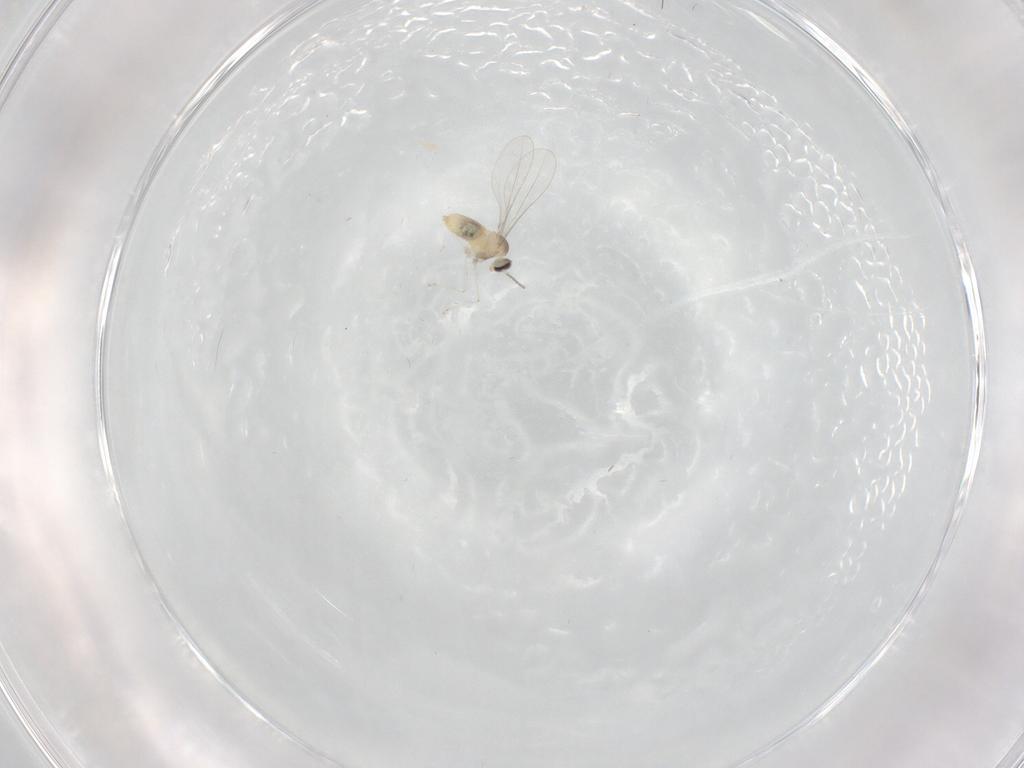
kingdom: Animalia
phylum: Arthropoda
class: Insecta
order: Diptera
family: Cecidomyiidae
